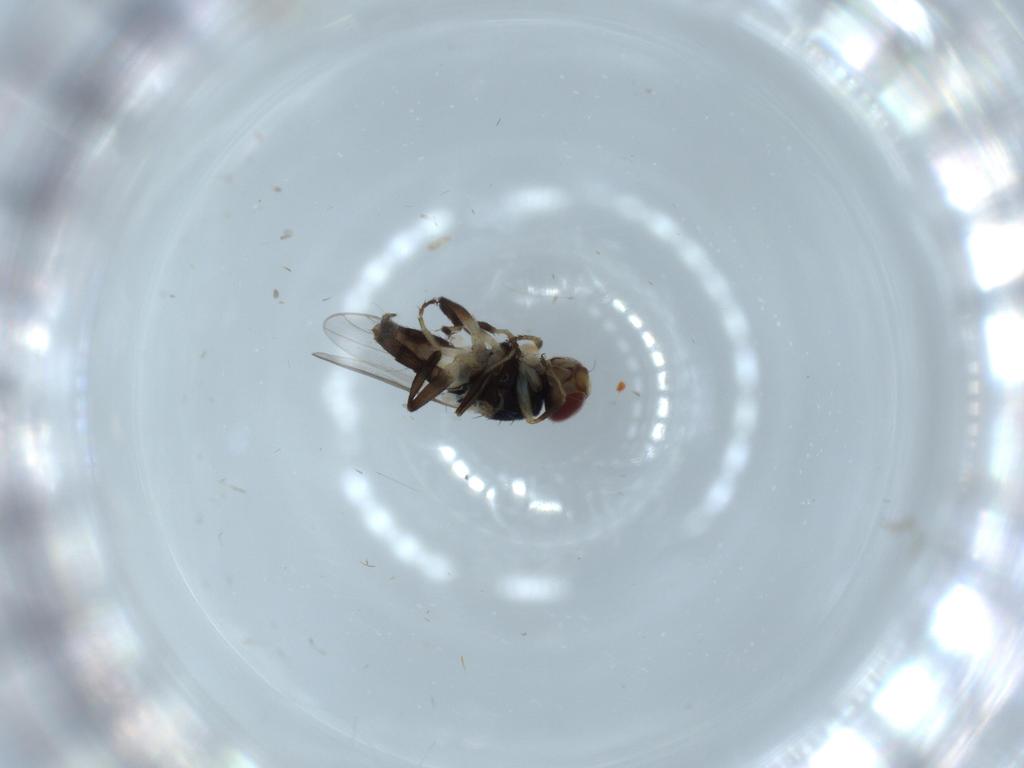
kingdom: Animalia
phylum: Arthropoda
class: Insecta
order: Diptera
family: Chloropidae
